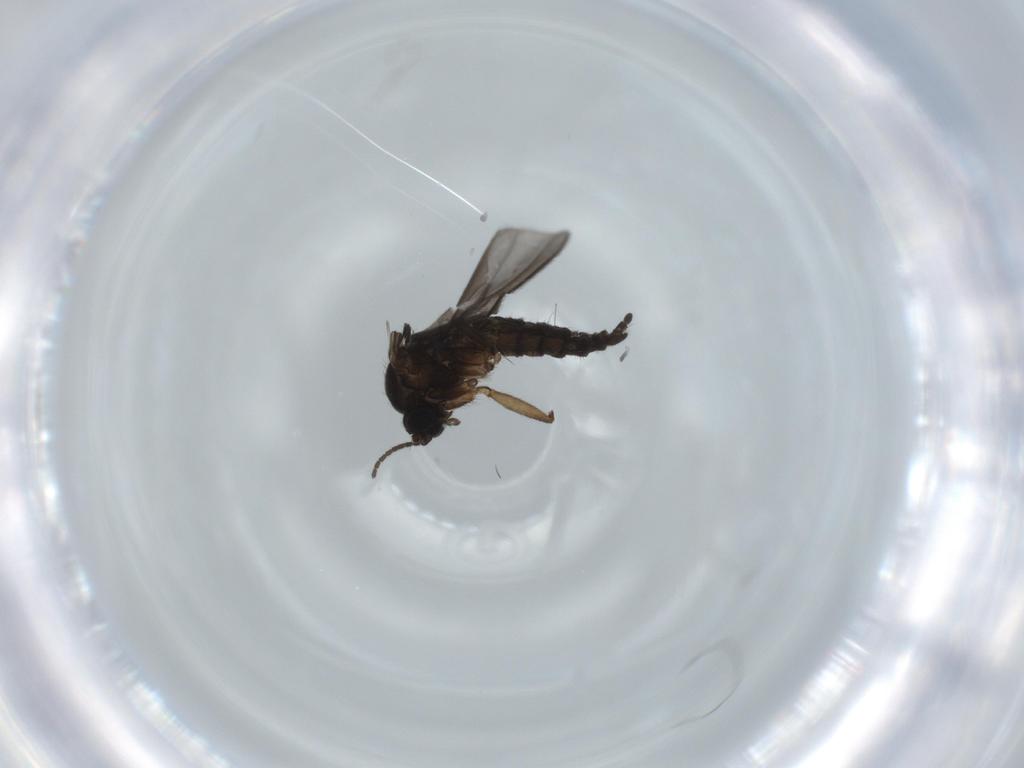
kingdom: Animalia
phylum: Arthropoda
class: Insecta
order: Diptera
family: Sciaridae
